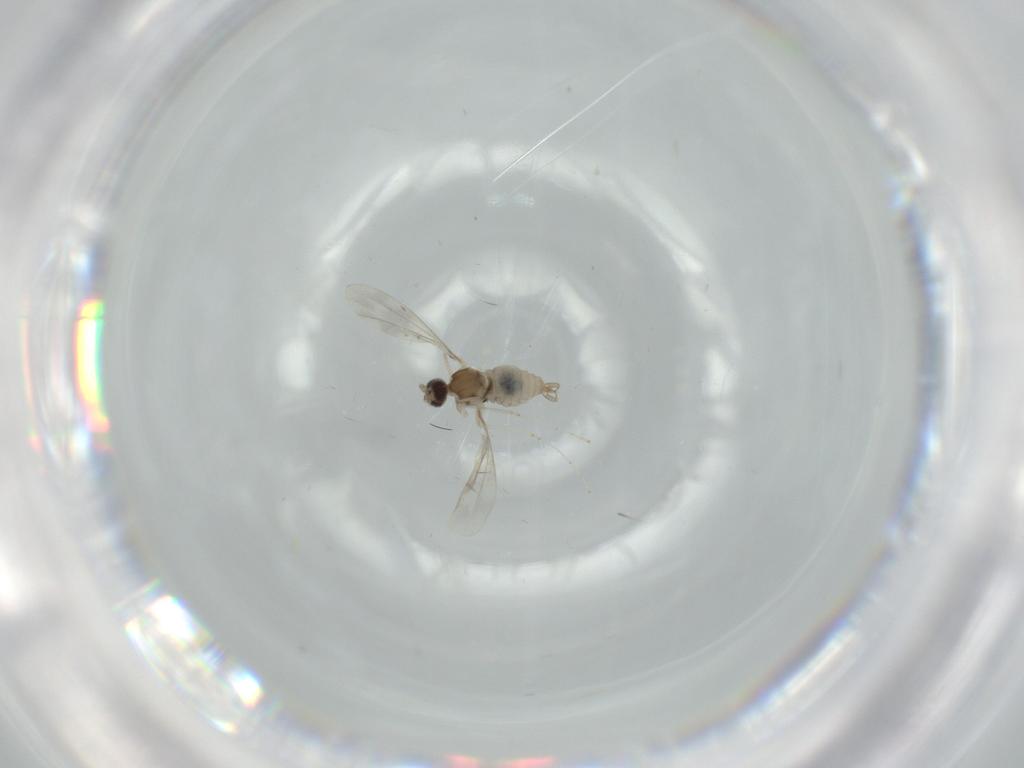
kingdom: Animalia
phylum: Arthropoda
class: Insecta
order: Diptera
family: Cecidomyiidae
